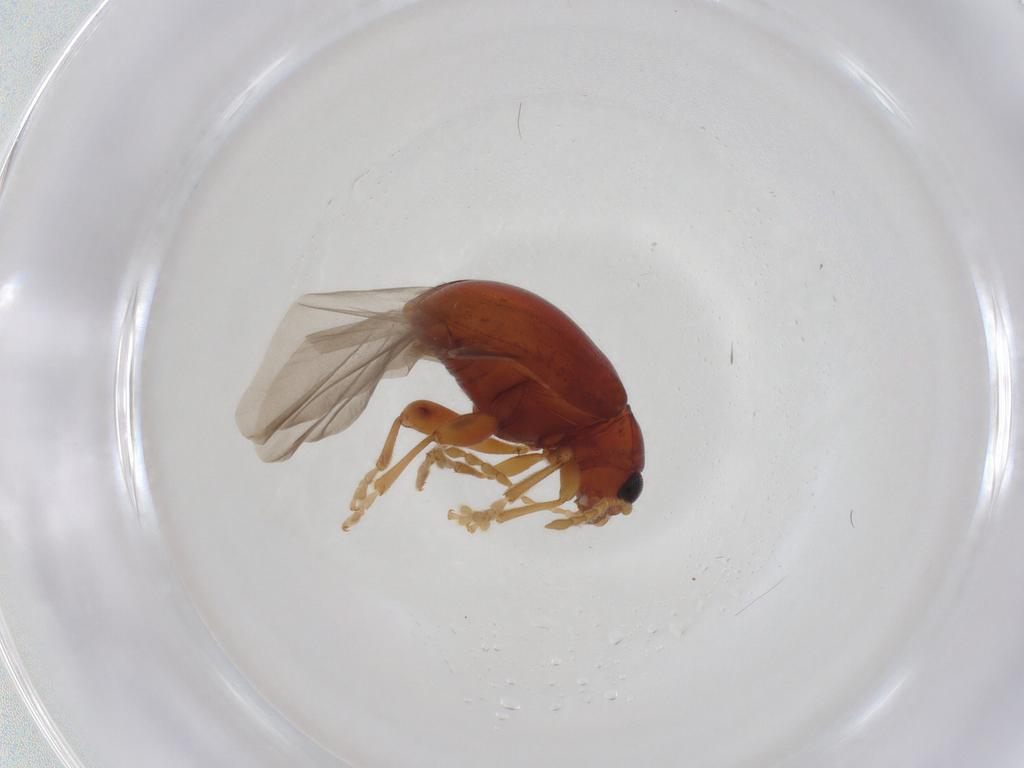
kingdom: Animalia
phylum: Arthropoda
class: Insecta
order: Coleoptera
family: Chrysomelidae
